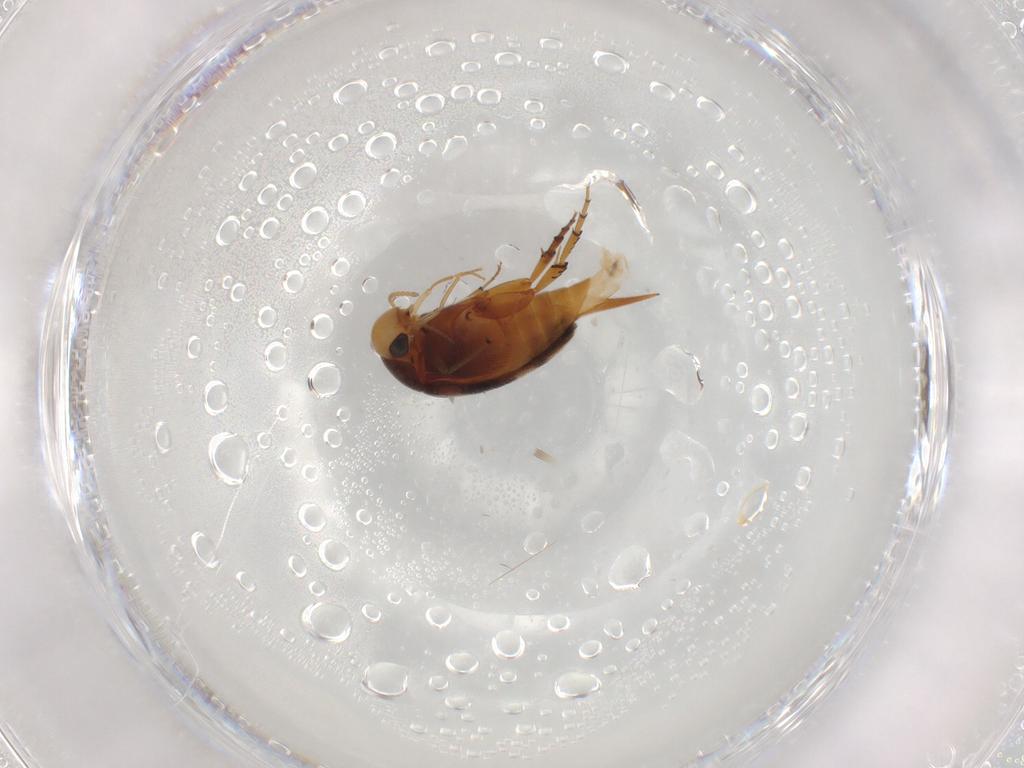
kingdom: Animalia
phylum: Arthropoda
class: Insecta
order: Coleoptera
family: Mordellidae
